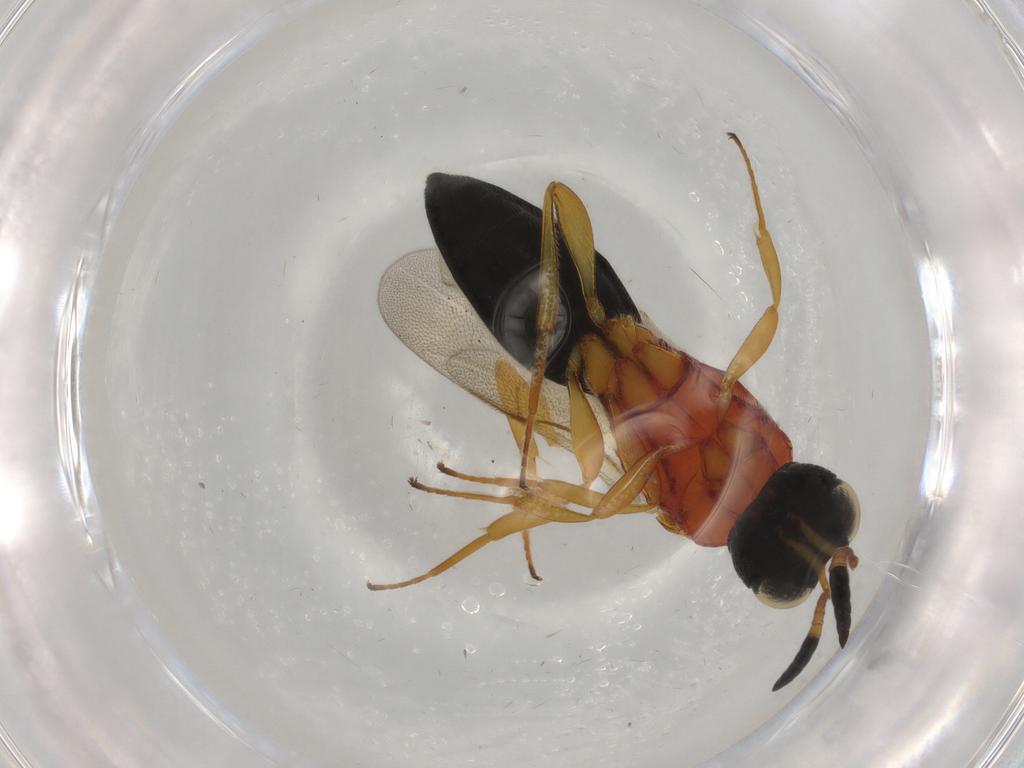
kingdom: Animalia
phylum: Arthropoda
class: Insecta
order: Hymenoptera
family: Scelionidae
